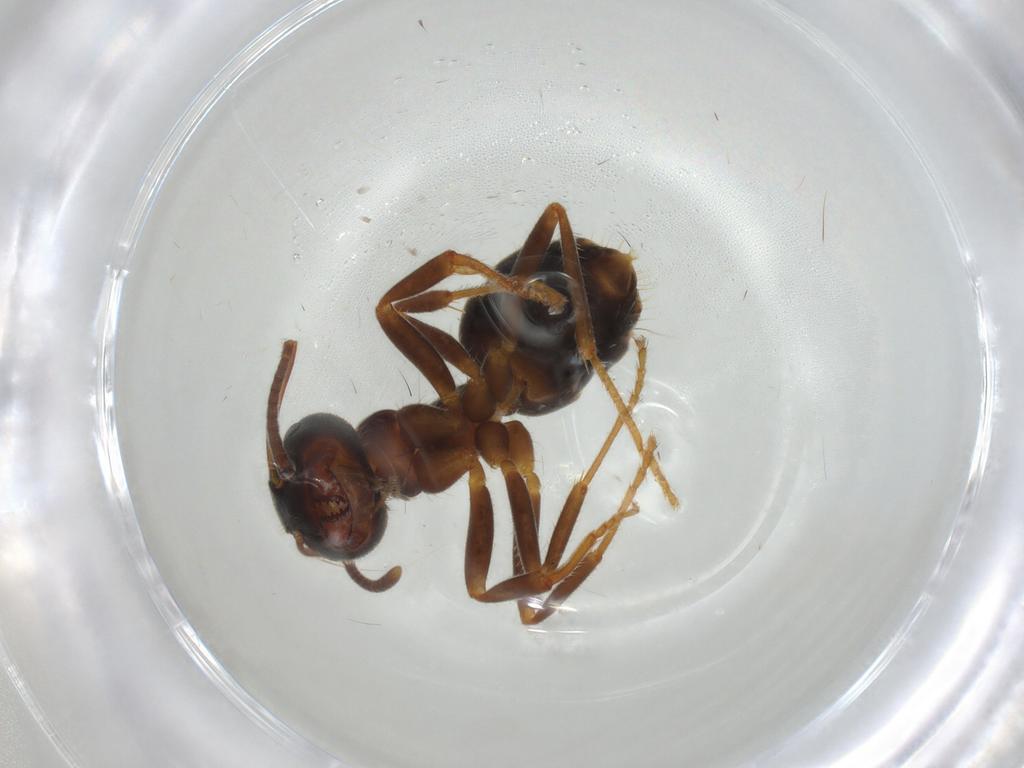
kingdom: Animalia
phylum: Arthropoda
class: Insecta
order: Hymenoptera
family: Formicidae
